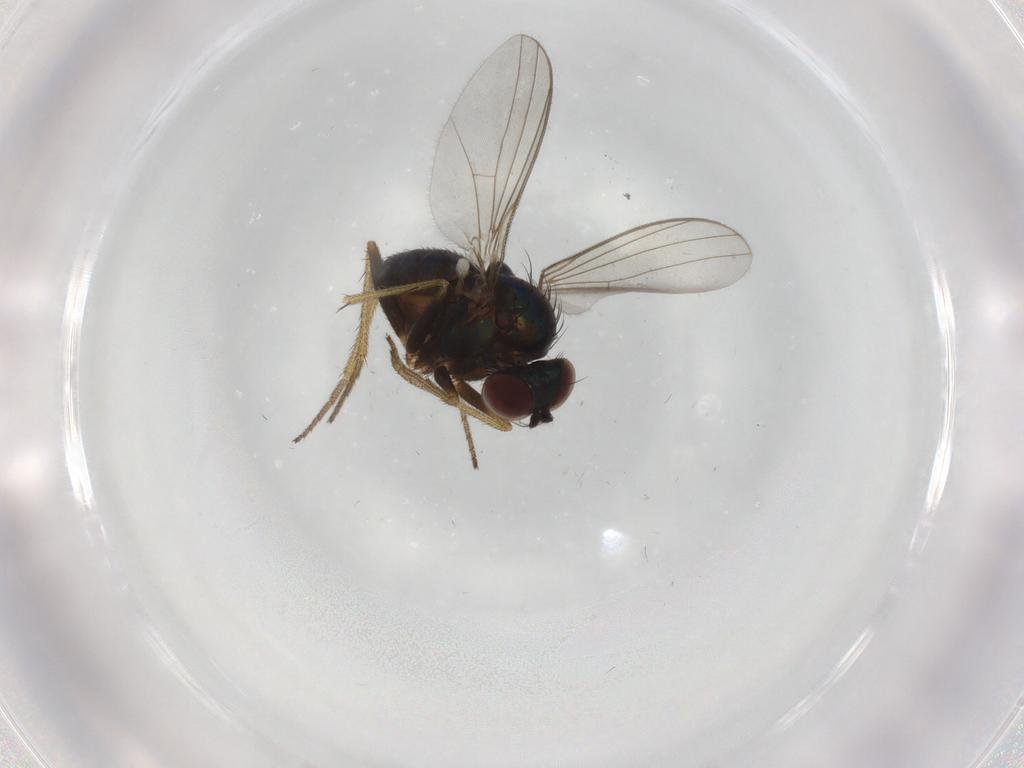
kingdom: Animalia
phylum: Arthropoda
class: Insecta
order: Diptera
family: Dolichopodidae
